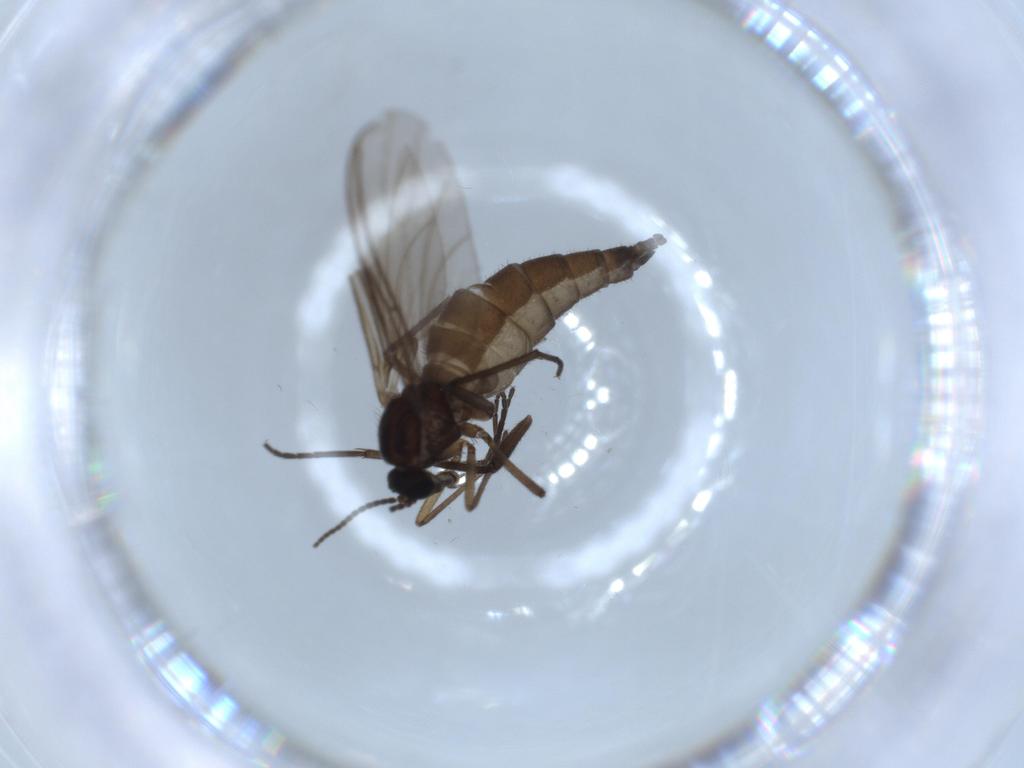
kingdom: Animalia
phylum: Arthropoda
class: Insecta
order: Diptera
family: Sciaridae
